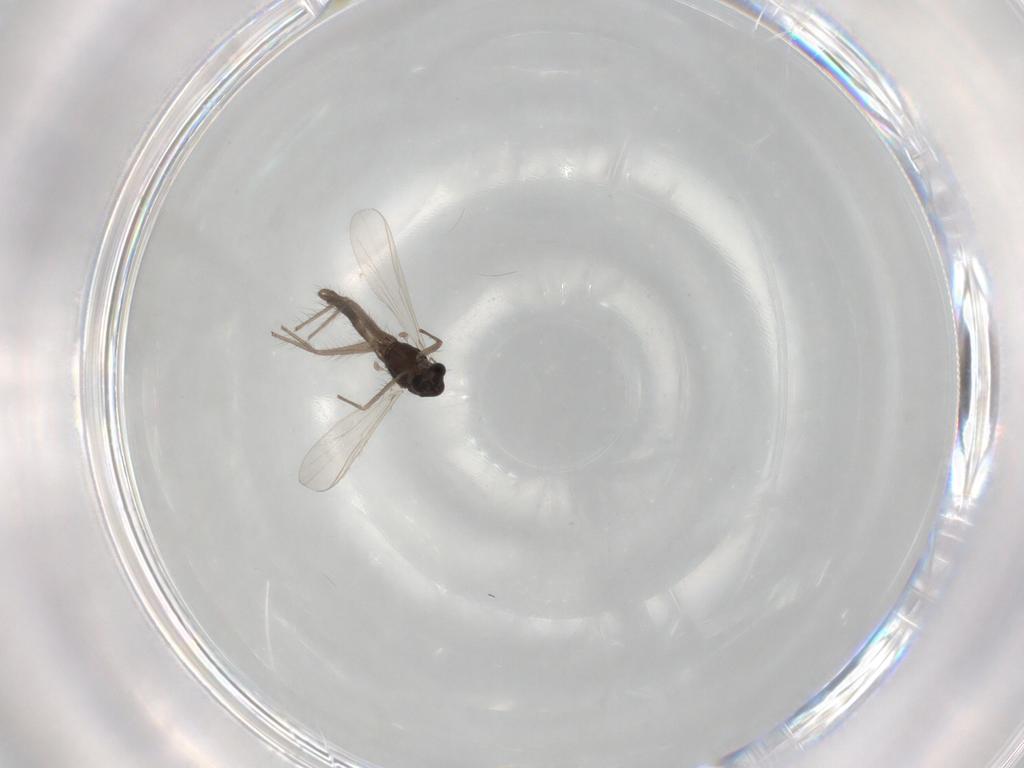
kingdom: Animalia
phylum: Arthropoda
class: Insecta
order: Diptera
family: Chironomidae
